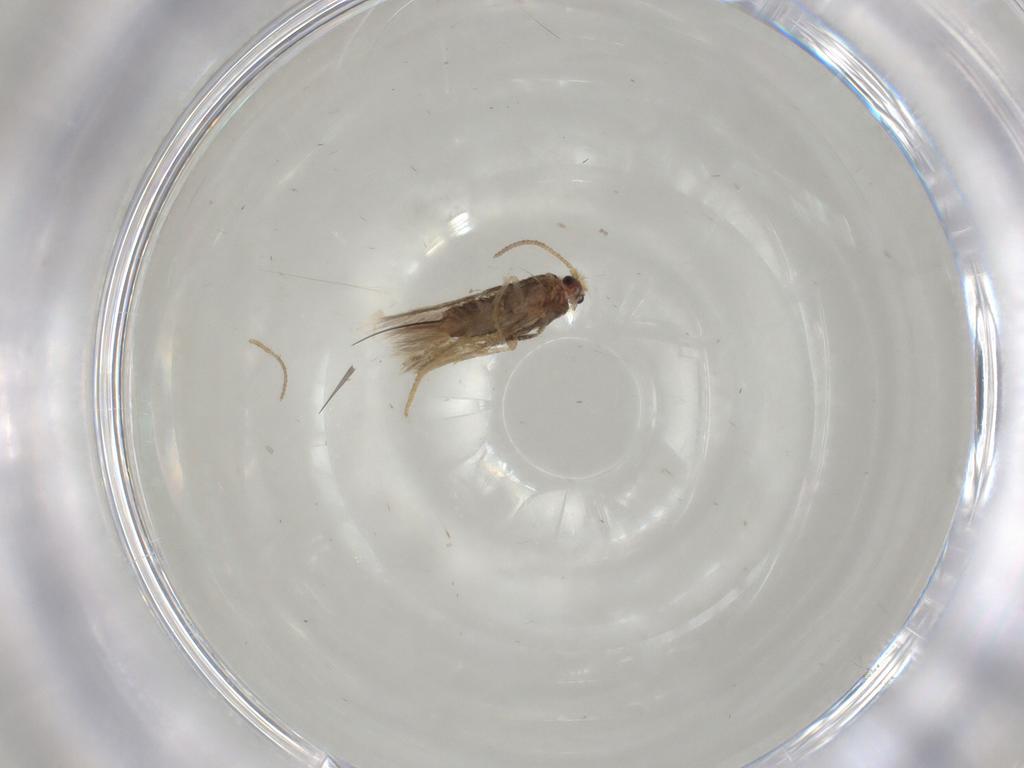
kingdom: Animalia
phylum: Arthropoda
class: Insecta
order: Lepidoptera
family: Nepticulidae
